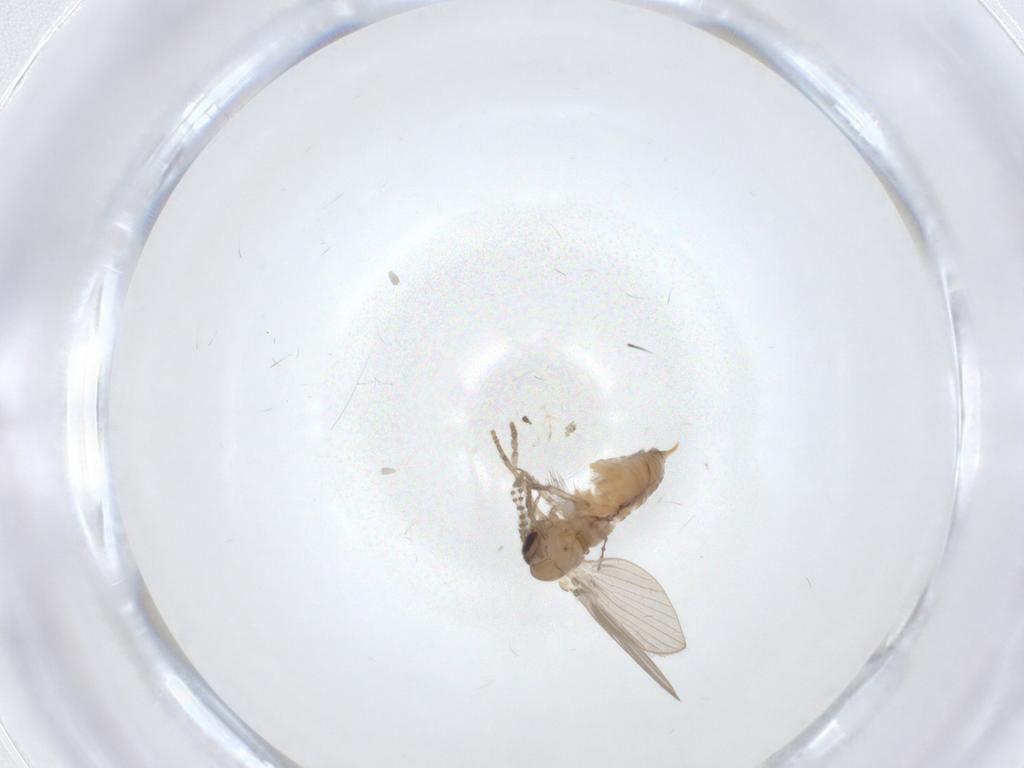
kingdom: Animalia
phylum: Arthropoda
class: Insecta
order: Diptera
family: Psychodidae
